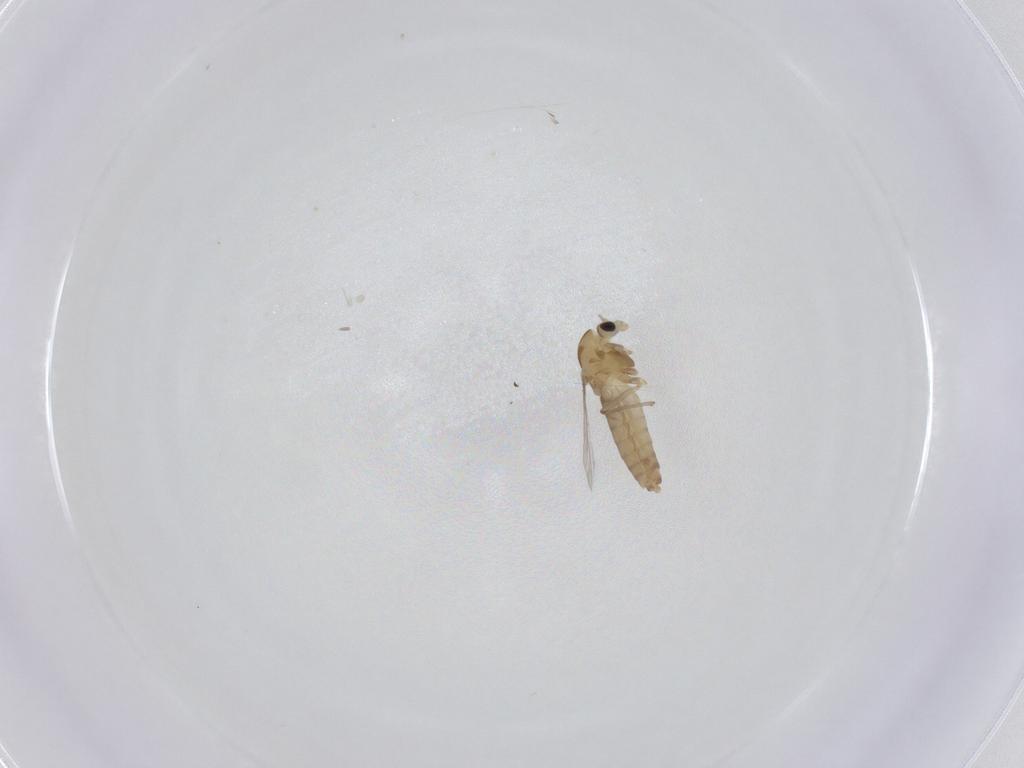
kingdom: Animalia
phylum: Arthropoda
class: Insecta
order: Diptera
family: Chironomidae
